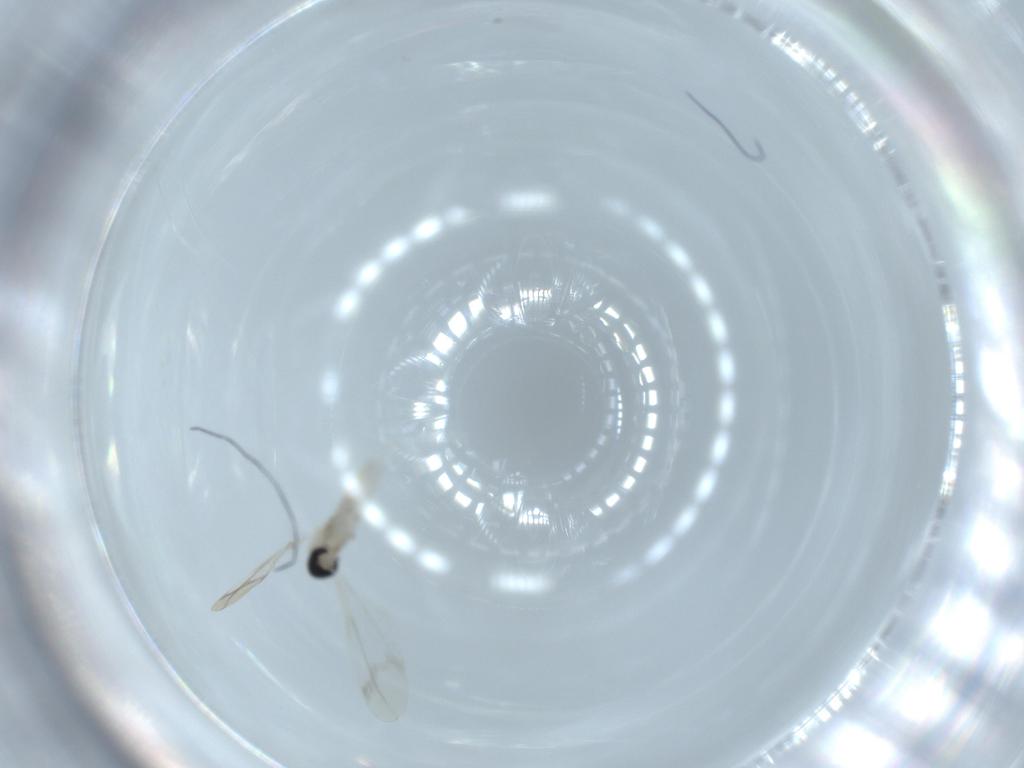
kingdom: Animalia
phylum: Arthropoda
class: Insecta
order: Diptera
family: Cecidomyiidae
